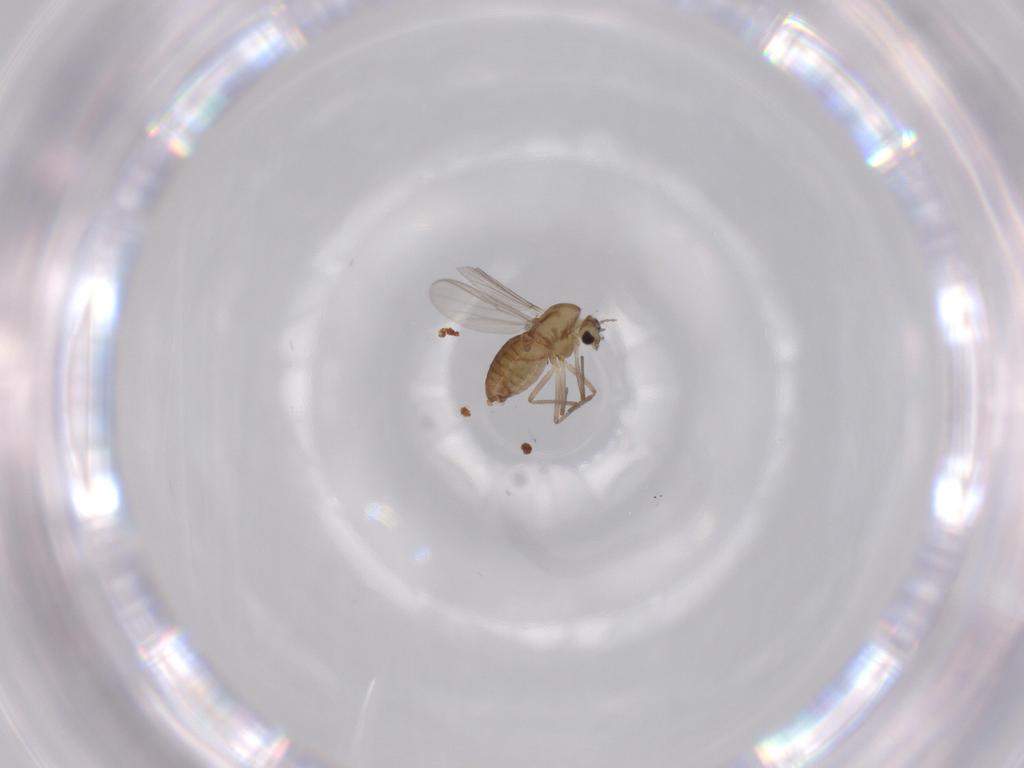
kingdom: Animalia
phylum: Arthropoda
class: Insecta
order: Diptera
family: Chironomidae
